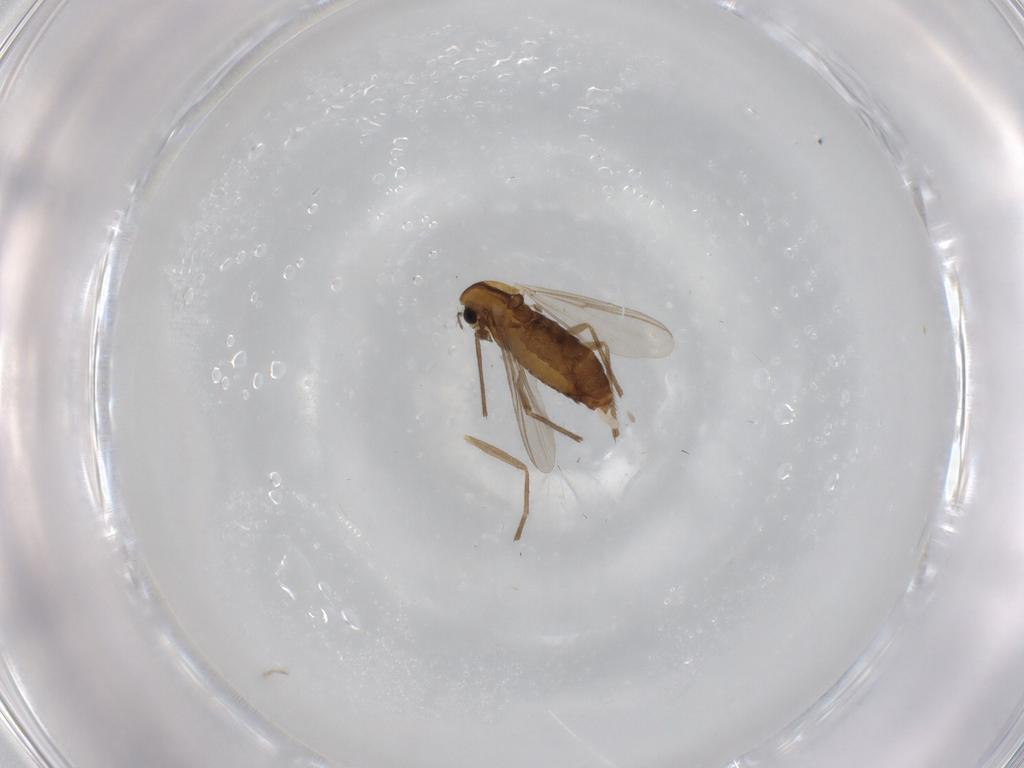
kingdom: Animalia
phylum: Arthropoda
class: Insecta
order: Diptera
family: Chironomidae
